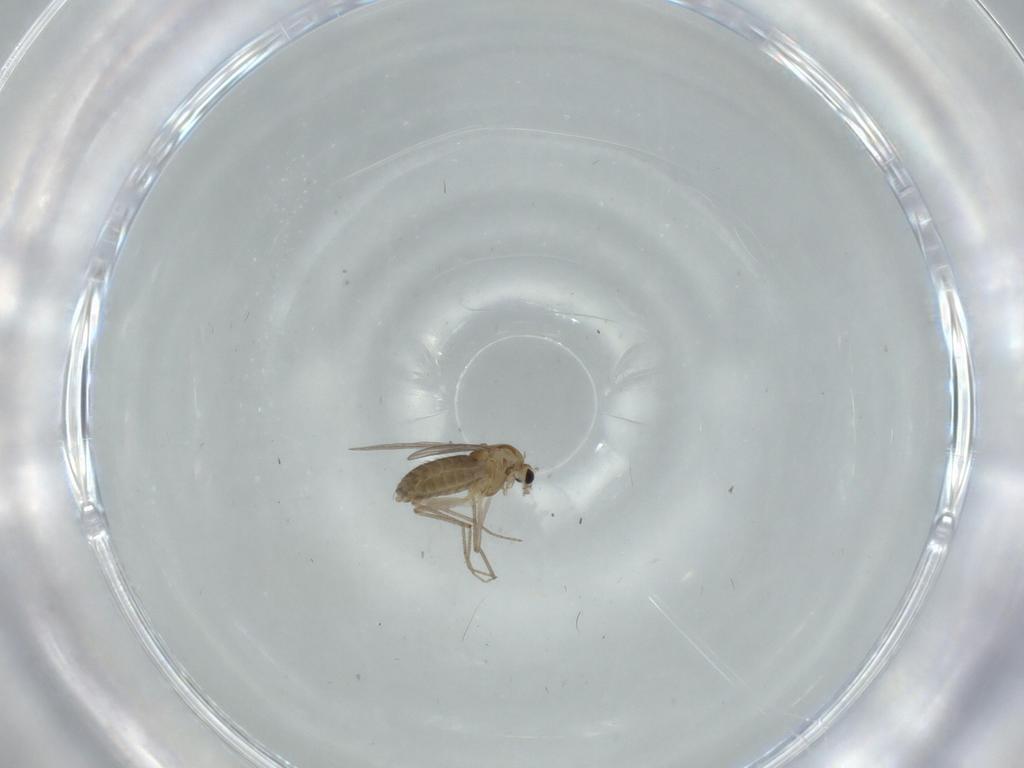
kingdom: Animalia
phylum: Arthropoda
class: Insecta
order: Diptera
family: Chironomidae
